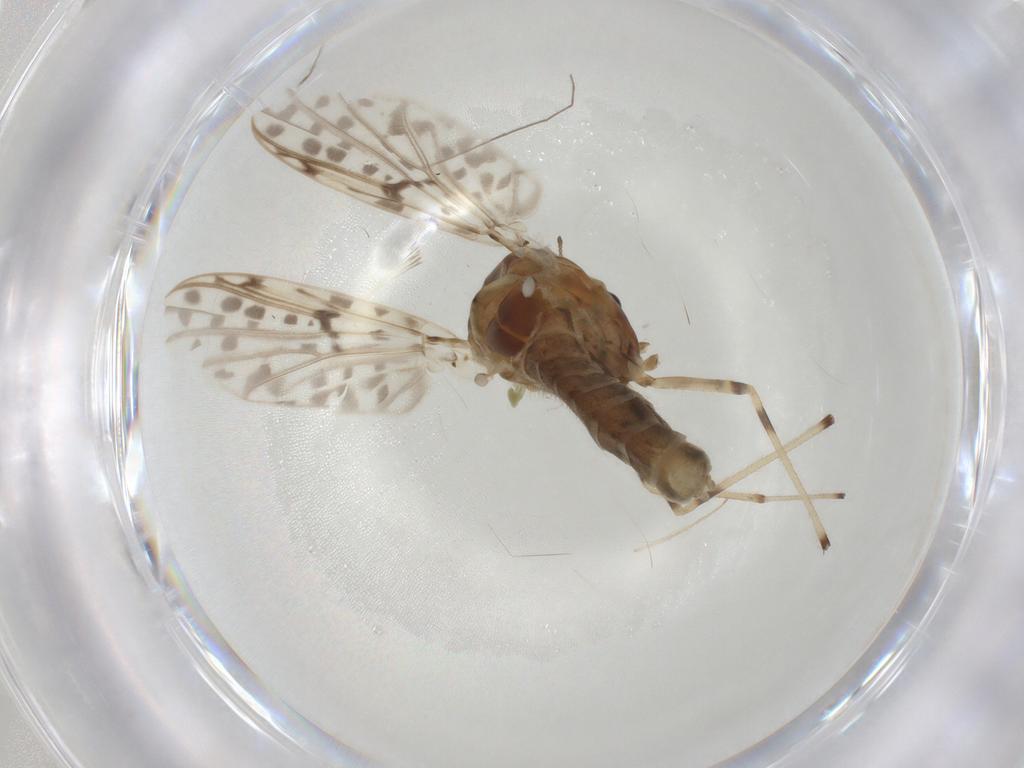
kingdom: Animalia
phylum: Arthropoda
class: Insecta
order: Diptera
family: Chironomidae
